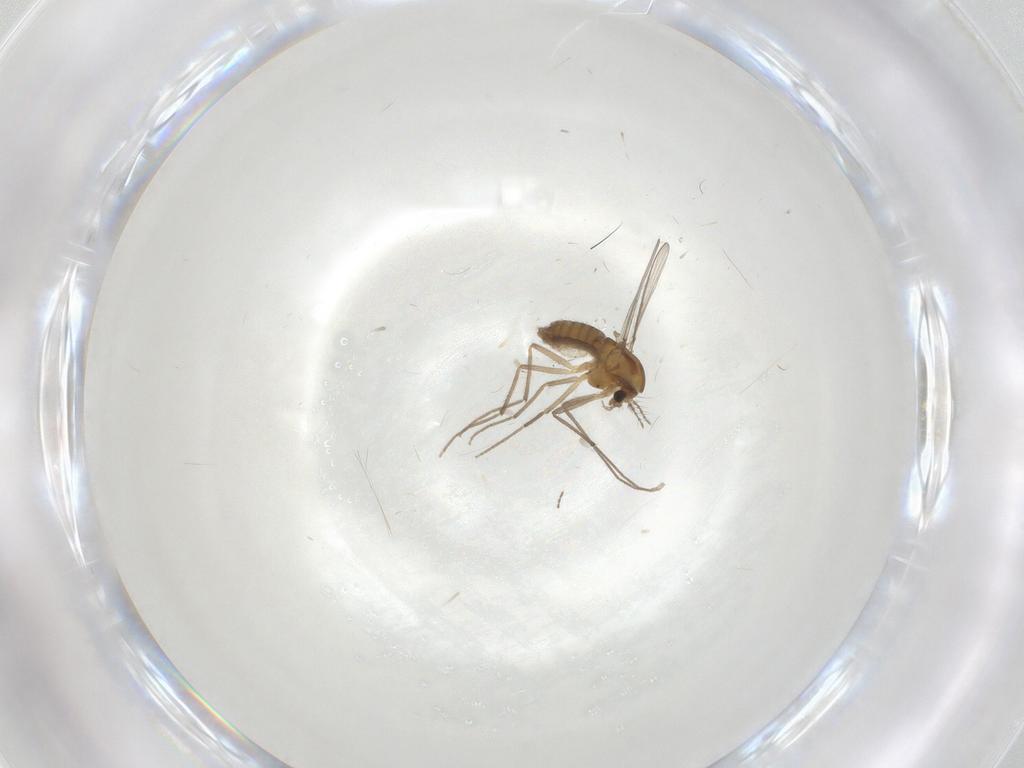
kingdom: Animalia
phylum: Arthropoda
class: Insecta
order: Diptera
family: Chironomidae
